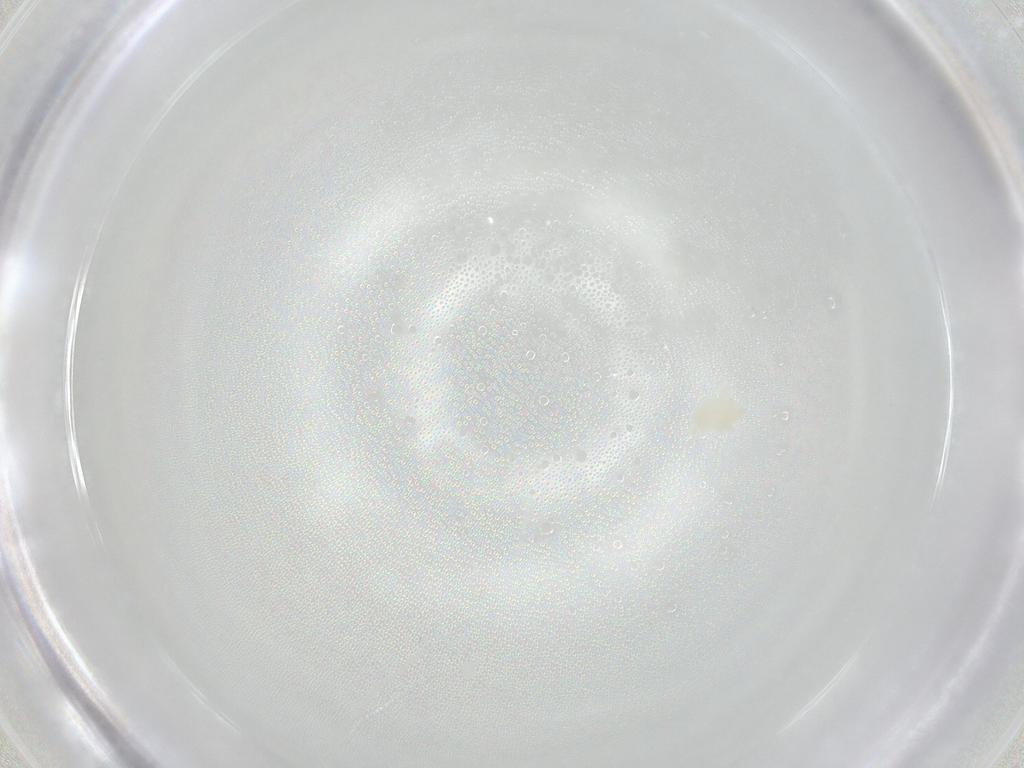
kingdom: Animalia
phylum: Arthropoda
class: Arachnida
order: Trombidiformes
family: Microtrombidiidae
